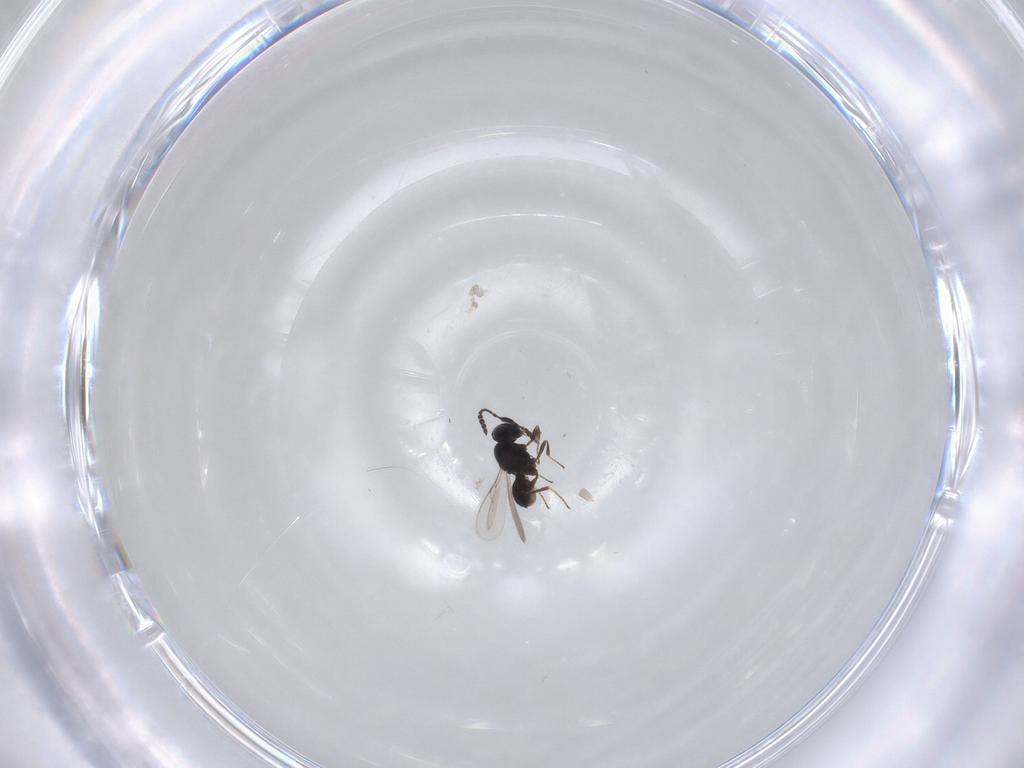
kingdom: Animalia
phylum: Arthropoda
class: Insecta
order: Hymenoptera
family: Scelionidae
